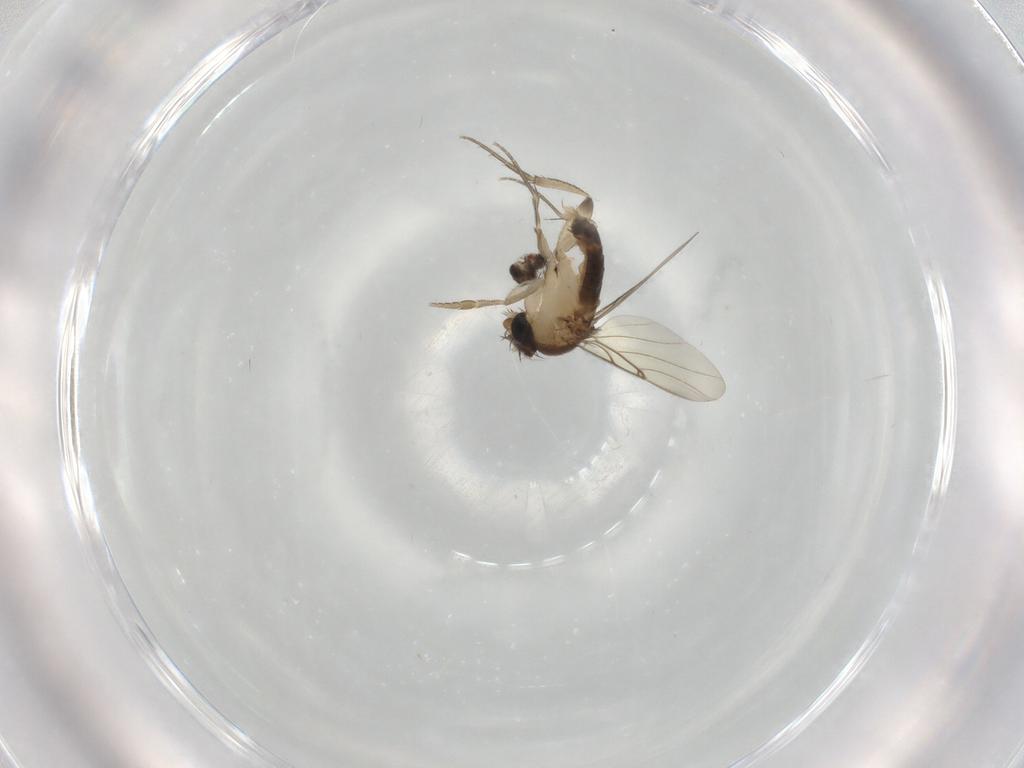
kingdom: Animalia
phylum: Arthropoda
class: Insecta
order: Diptera
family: Phoridae
